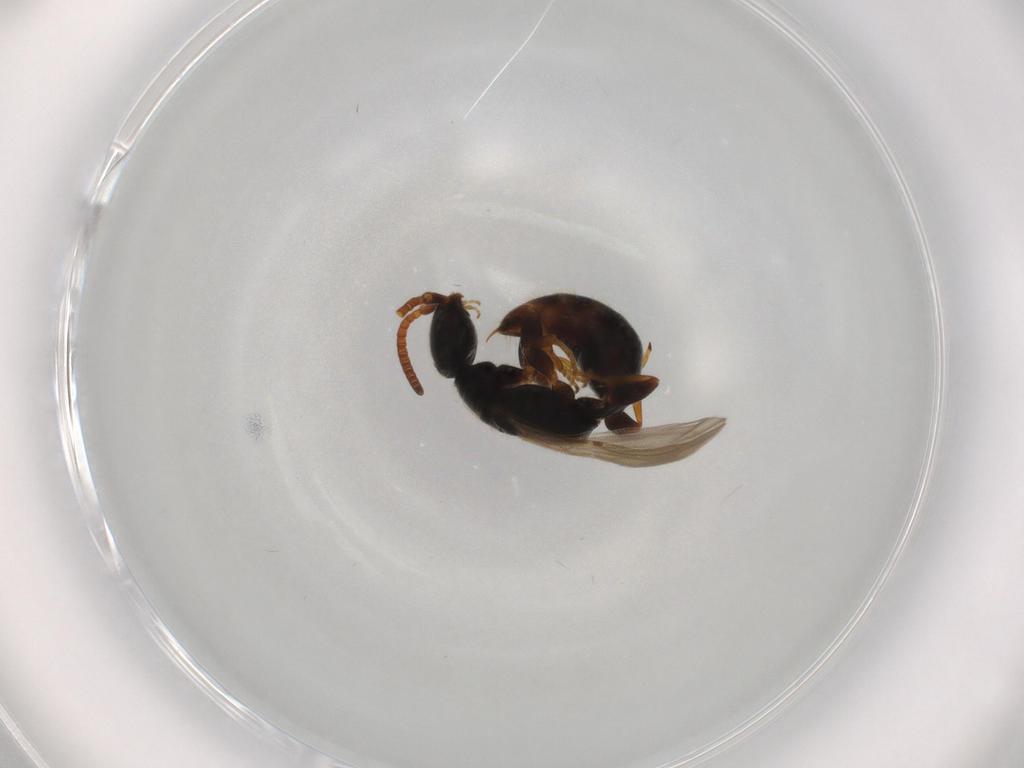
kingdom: Animalia
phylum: Arthropoda
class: Insecta
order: Hymenoptera
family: Bethylidae
